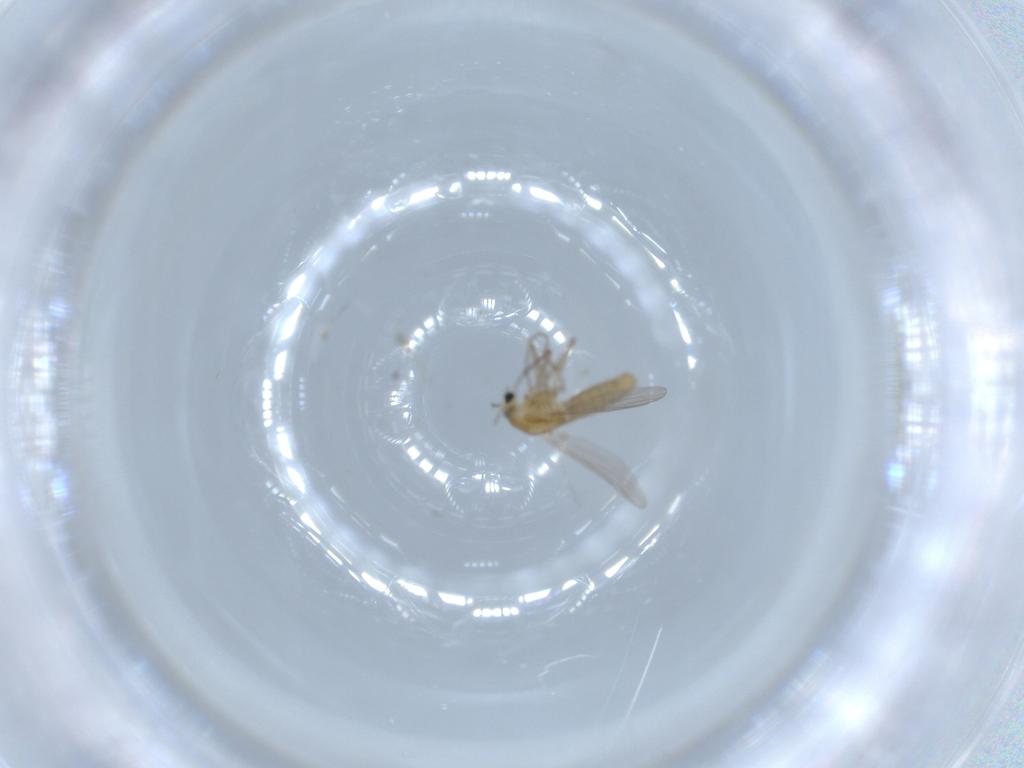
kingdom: Animalia
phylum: Arthropoda
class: Insecta
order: Diptera
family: Chironomidae
